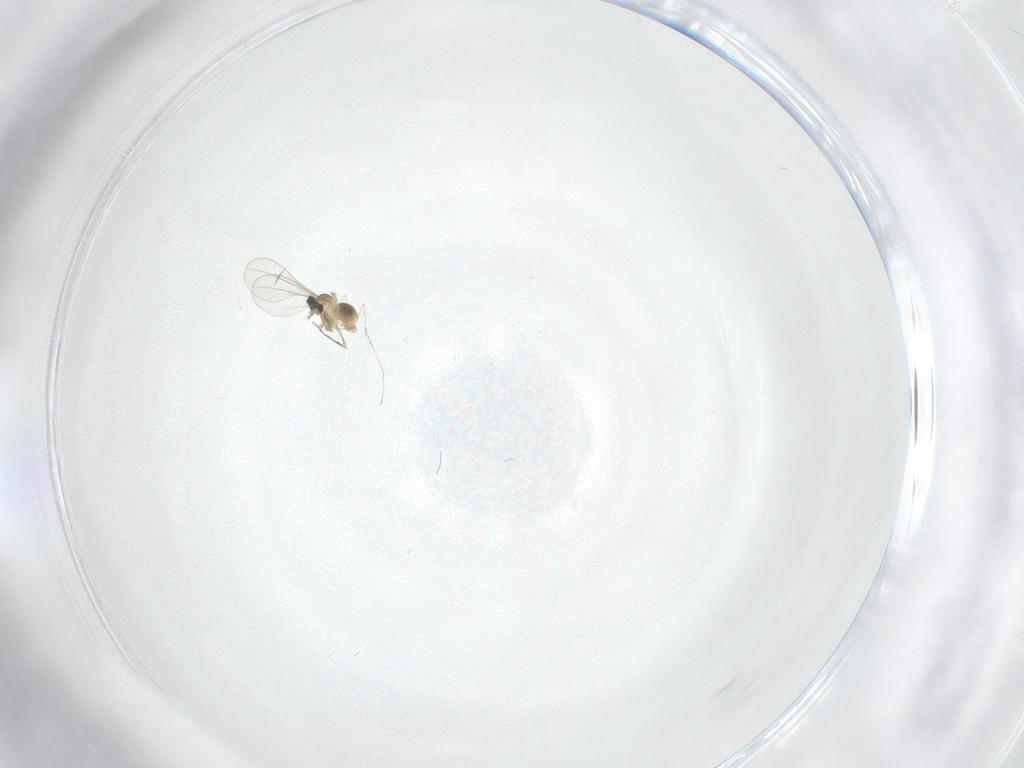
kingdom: Animalia
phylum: Arthropoda
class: Insecta
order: Diptera
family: Cecidomyiidae
